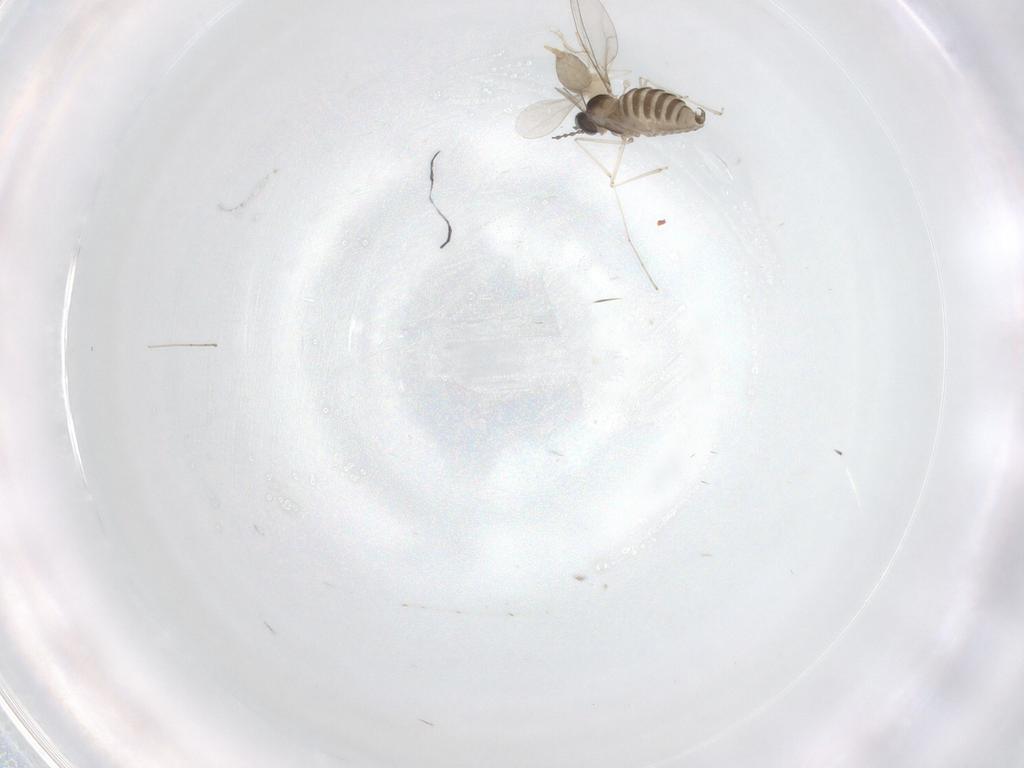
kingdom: Animalia
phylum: Arthropoda
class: Insecta
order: Diptera
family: Cecidomyiidae
